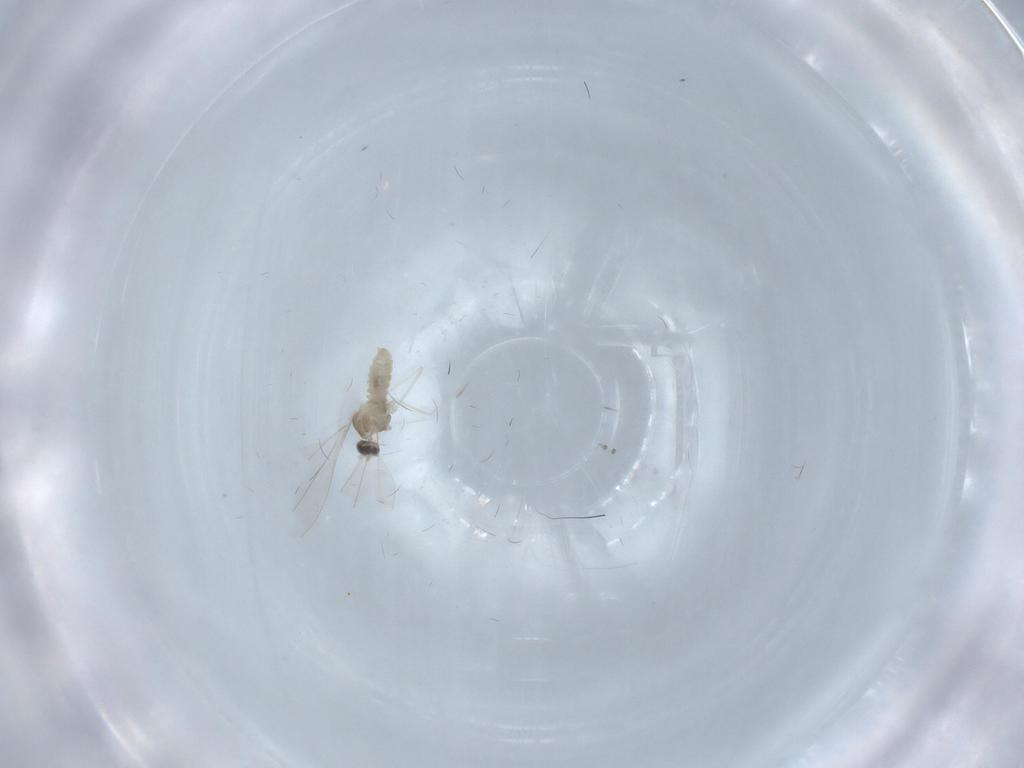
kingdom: Animalia
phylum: Arthropoda
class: Insecta
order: Diptera
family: Cecidomyiidae
